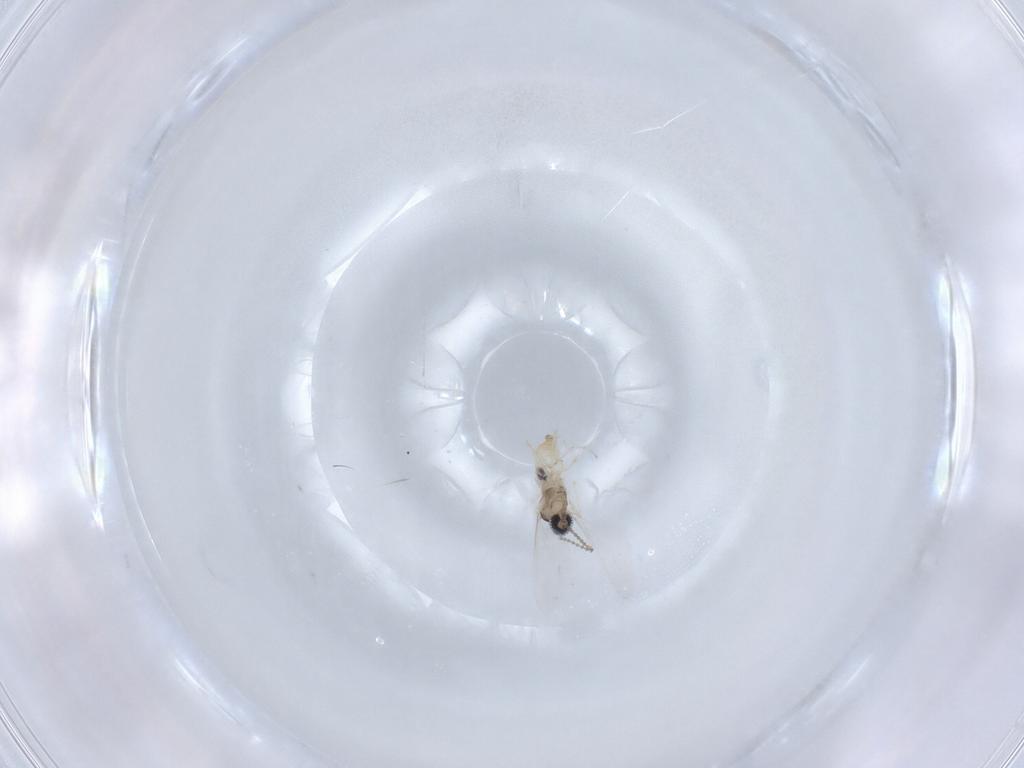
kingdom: Animalia
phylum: Arthropoda
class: Insecta
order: Diptera
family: Cecidomyiidae
